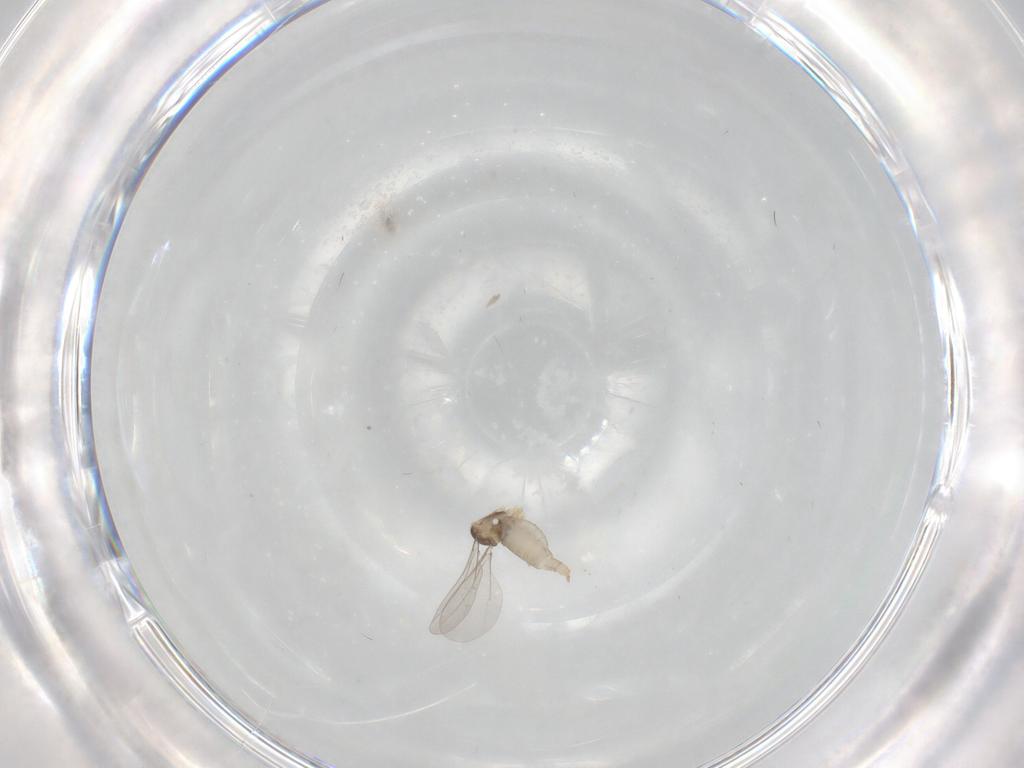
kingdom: Animalia
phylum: Arthropoda
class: Insecta
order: Diptera
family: Cecidomyiidae
